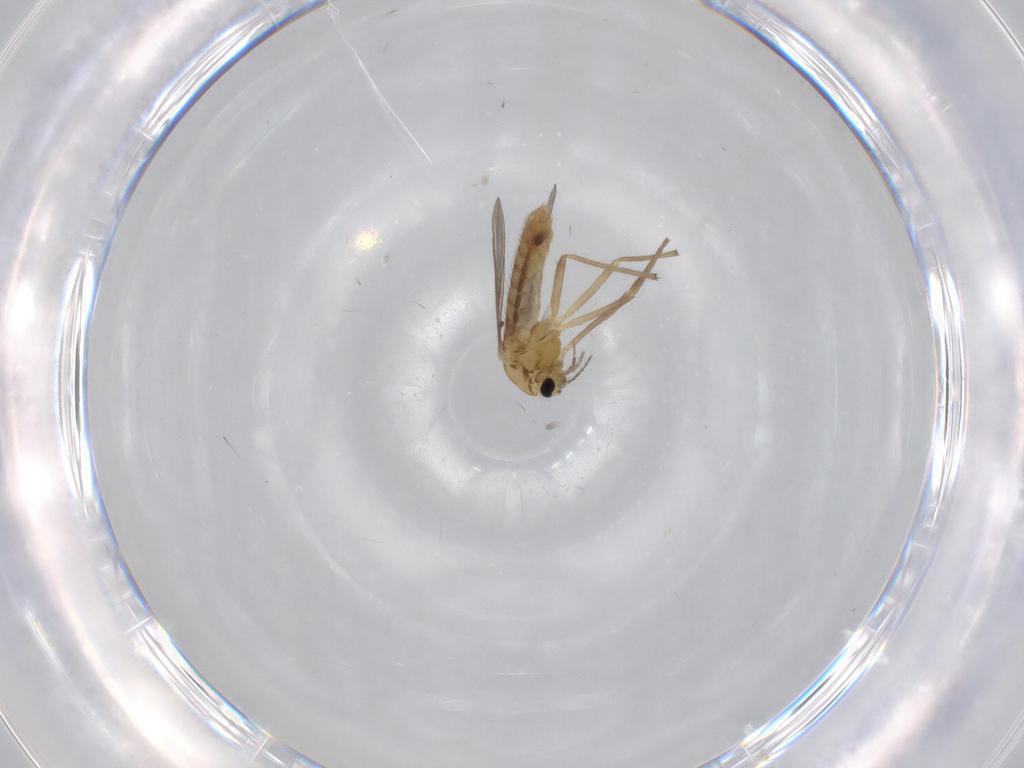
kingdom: Animalia
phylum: Arthropoda
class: Insecta
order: Diptera
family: Chironomidae
